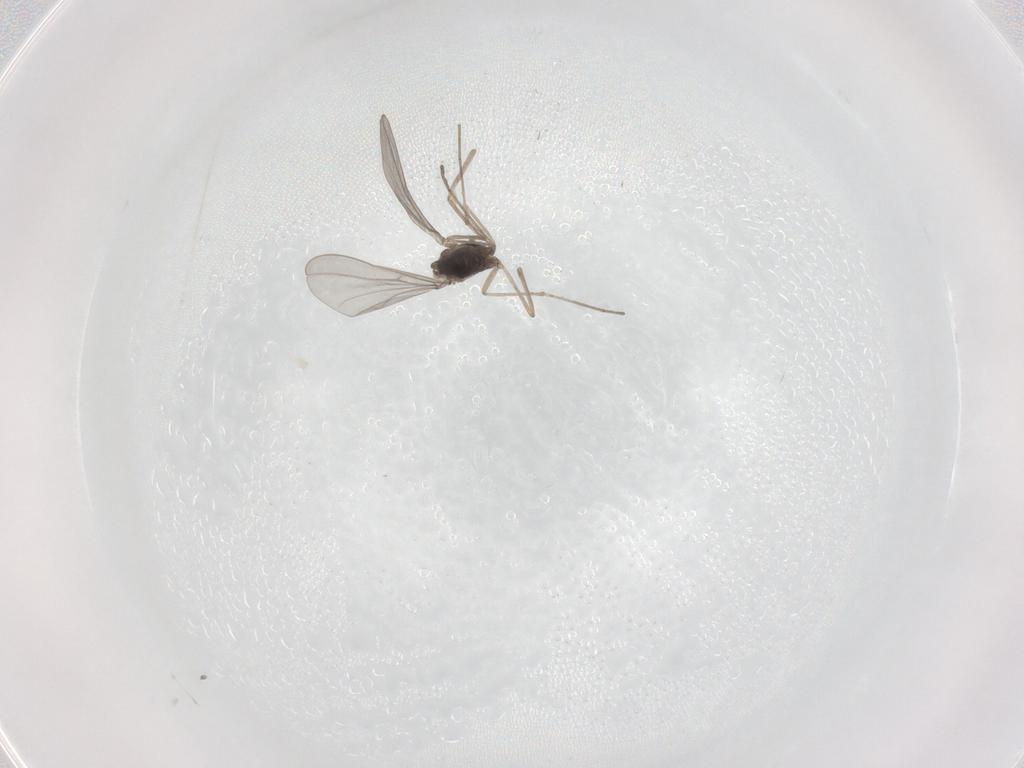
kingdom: Animalia
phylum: Arthropoda
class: Insecta
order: Diptera
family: Cecidomyiidae
